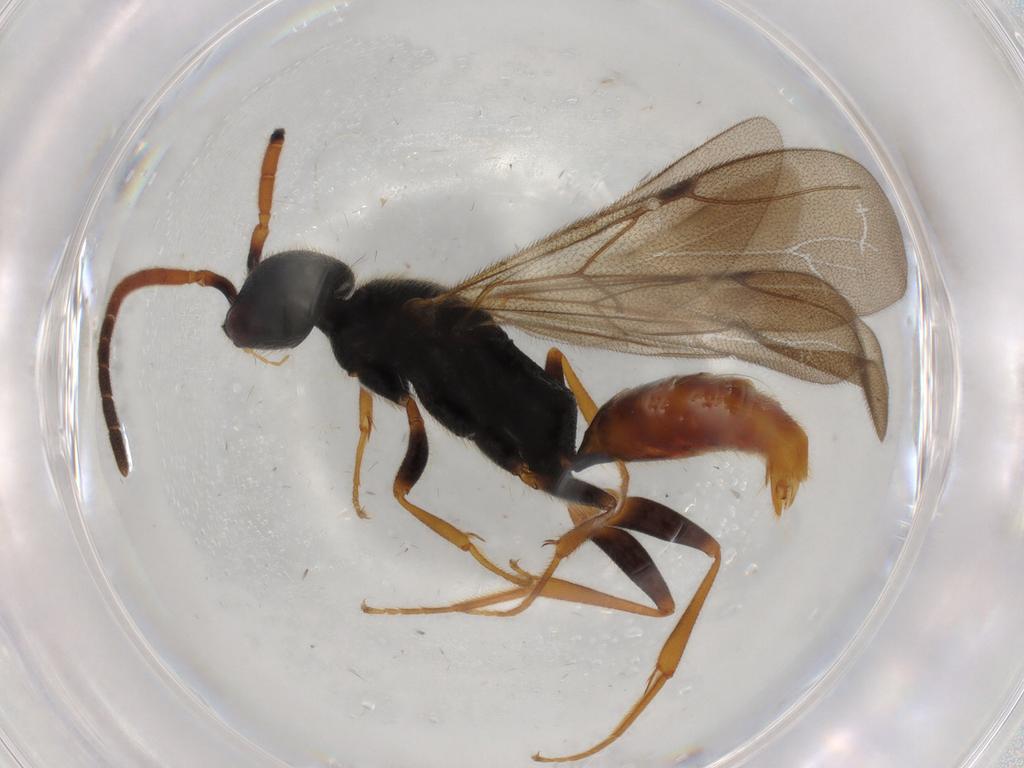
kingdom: Animalia
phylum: Arthropoda
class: Insecta
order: Hymenoptera
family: Bethylidae
